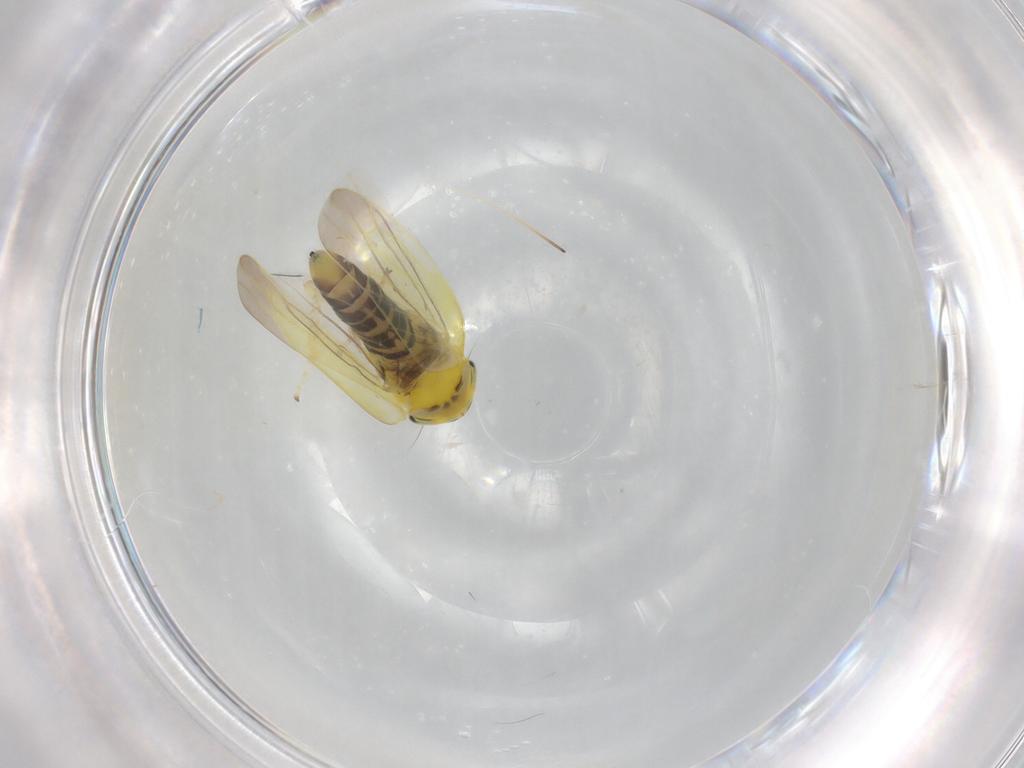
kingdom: Animalia
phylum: Arthropoda
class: Insecta
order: Hemiptera
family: Cicadellidae
